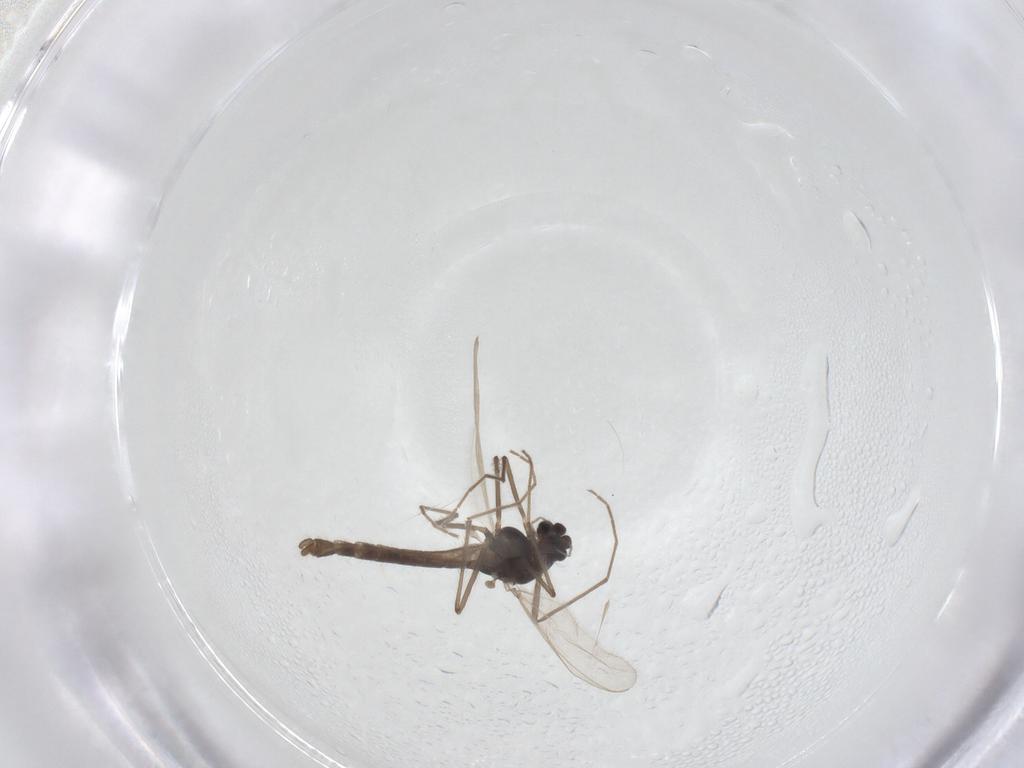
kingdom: Animalia
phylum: Arthropoda
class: Insecta
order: Diptera
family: Chironomidae
